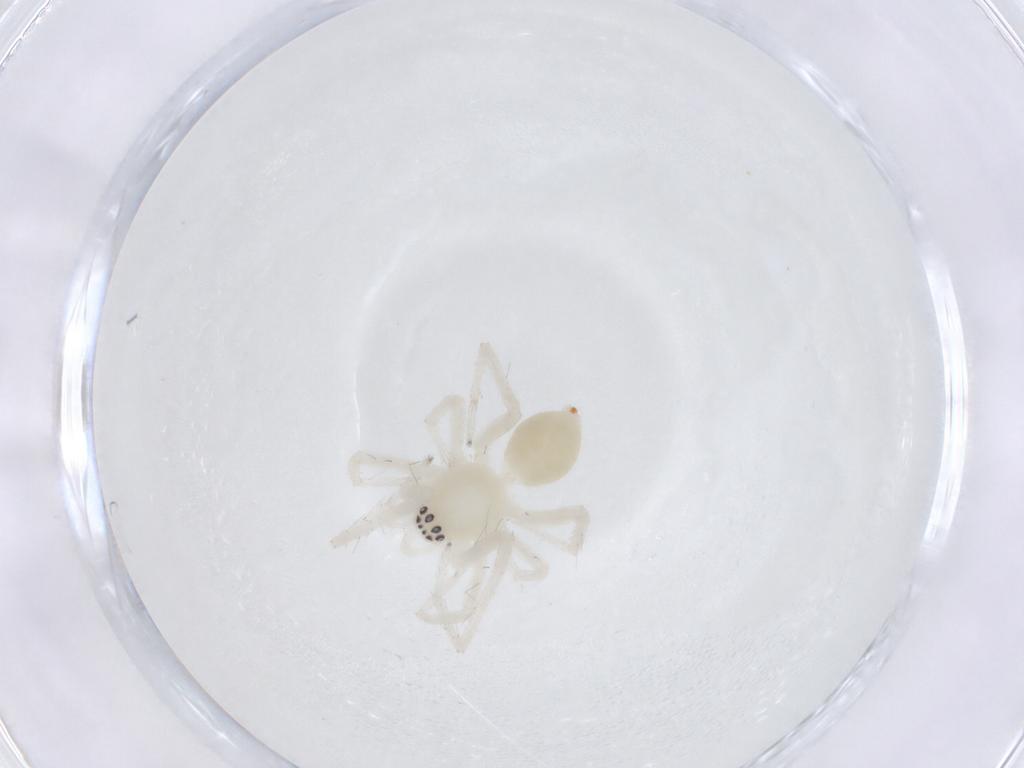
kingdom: Animalia
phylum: Arthropoda
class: Arachnida
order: Araneae
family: Anyphaenidae
